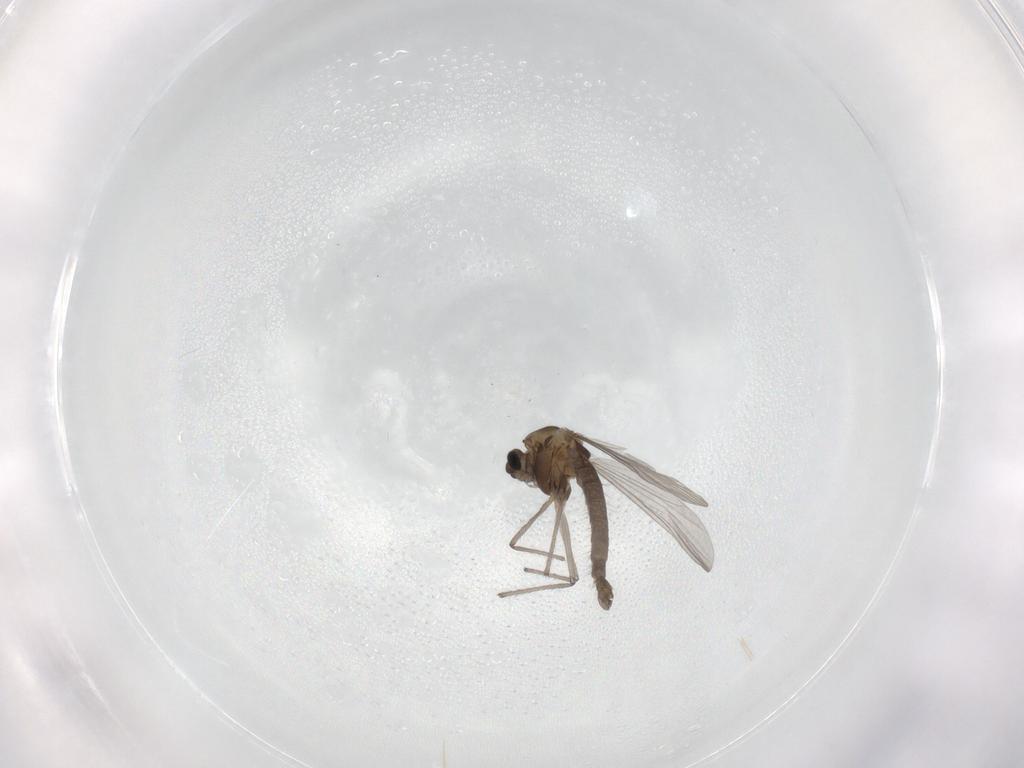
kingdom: Animalia
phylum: Arthropoda
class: Insecta
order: Diptera
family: Chironomidae
